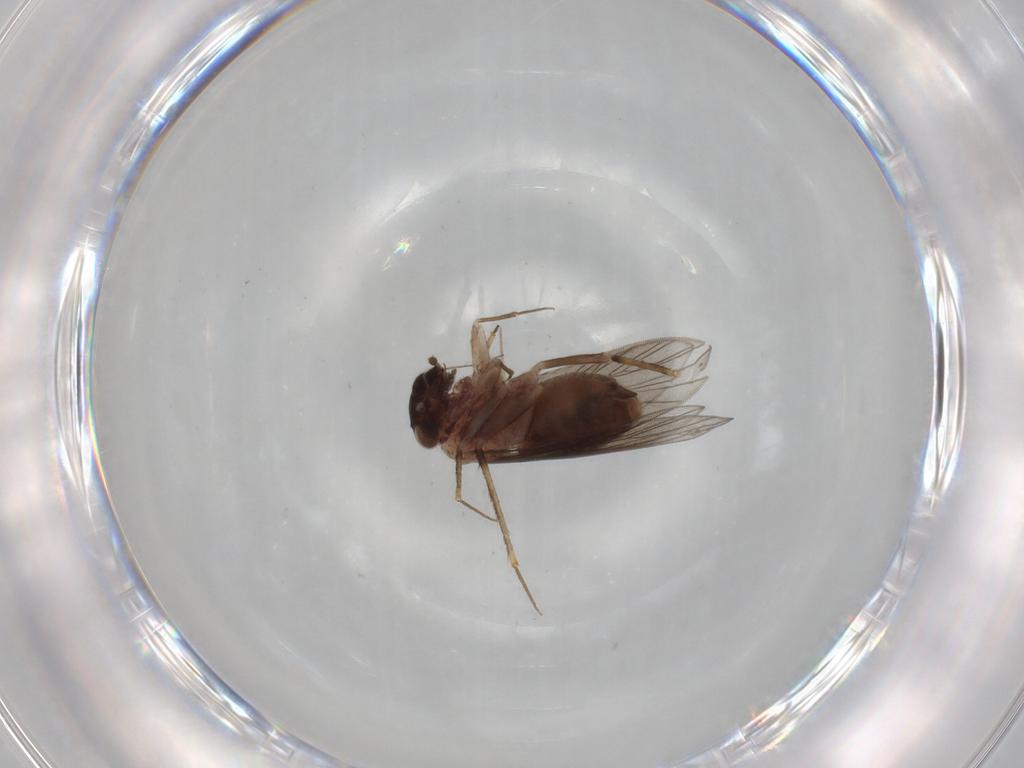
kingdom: Animalia
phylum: Arthropoda
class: Insecta
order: Psocodea
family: Lepidopsocidae
